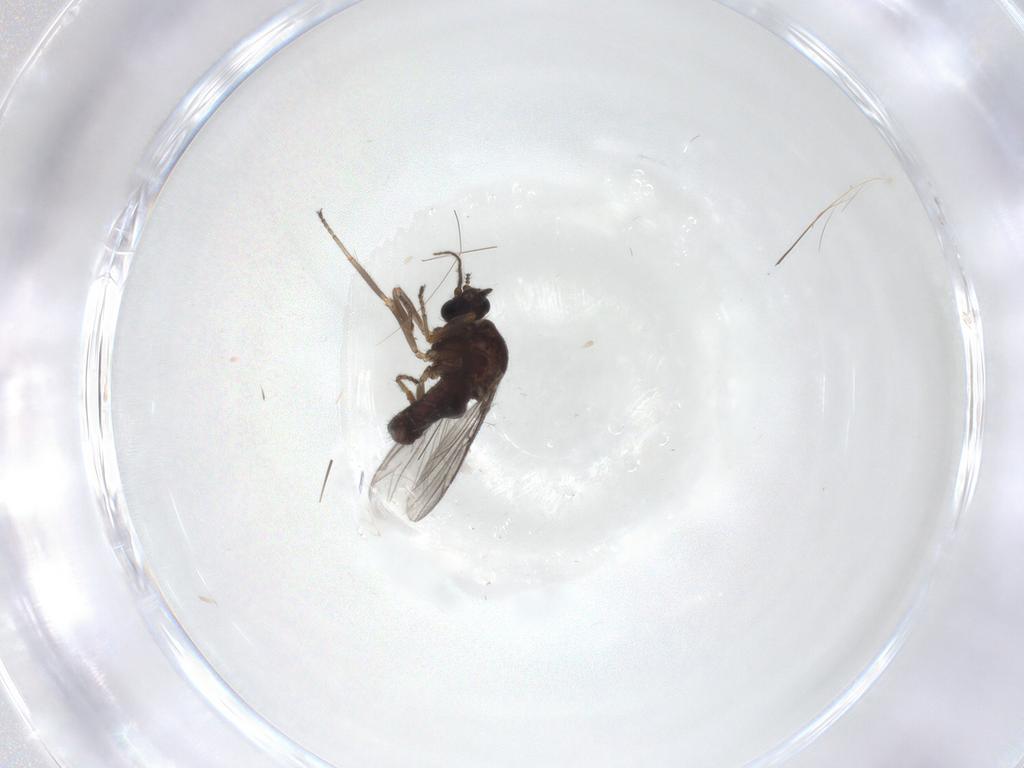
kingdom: Animalia
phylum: Arthropoda
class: Insecta
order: Diptera
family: Ceratopogonidae
